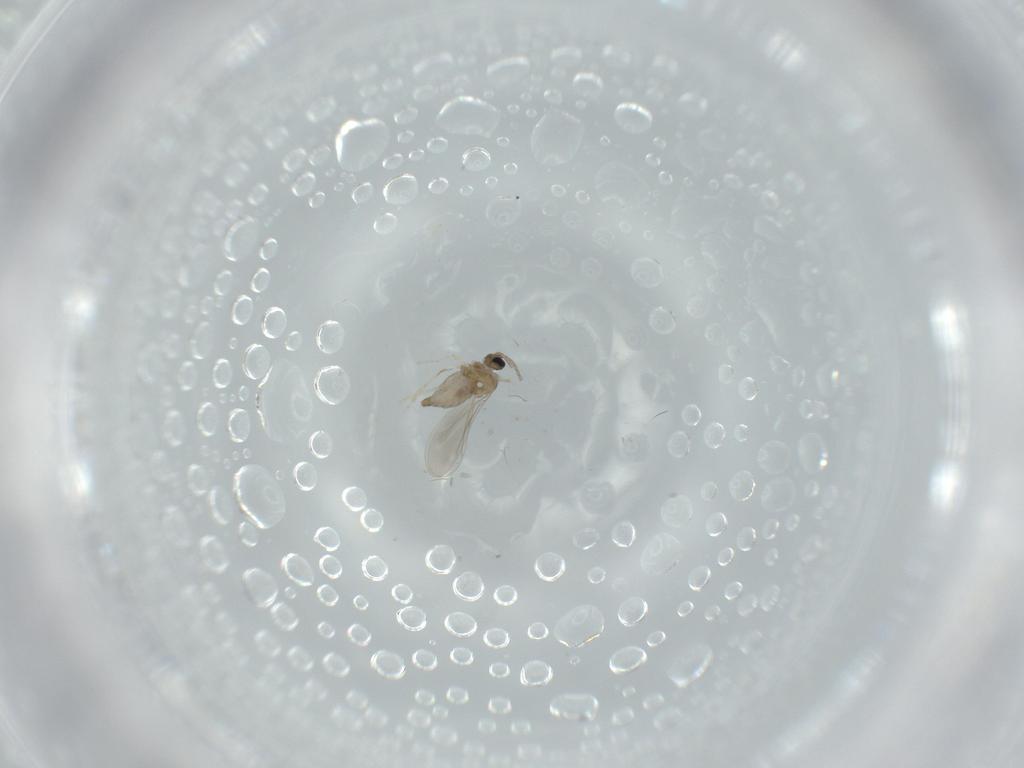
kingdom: Animalia
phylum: Arthropoda
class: Insecta
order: Diptera
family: Cecidomyiidae
